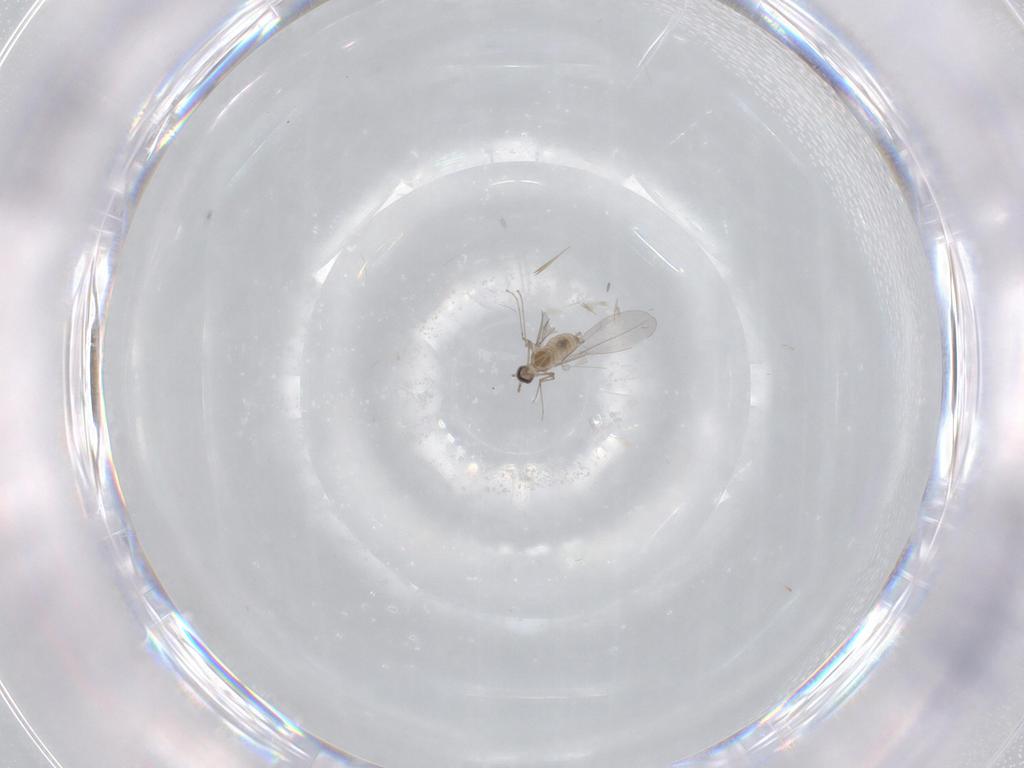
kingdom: Animalia
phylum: Arthropoda
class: Insecta
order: Diptera
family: Cecidomyiidae
